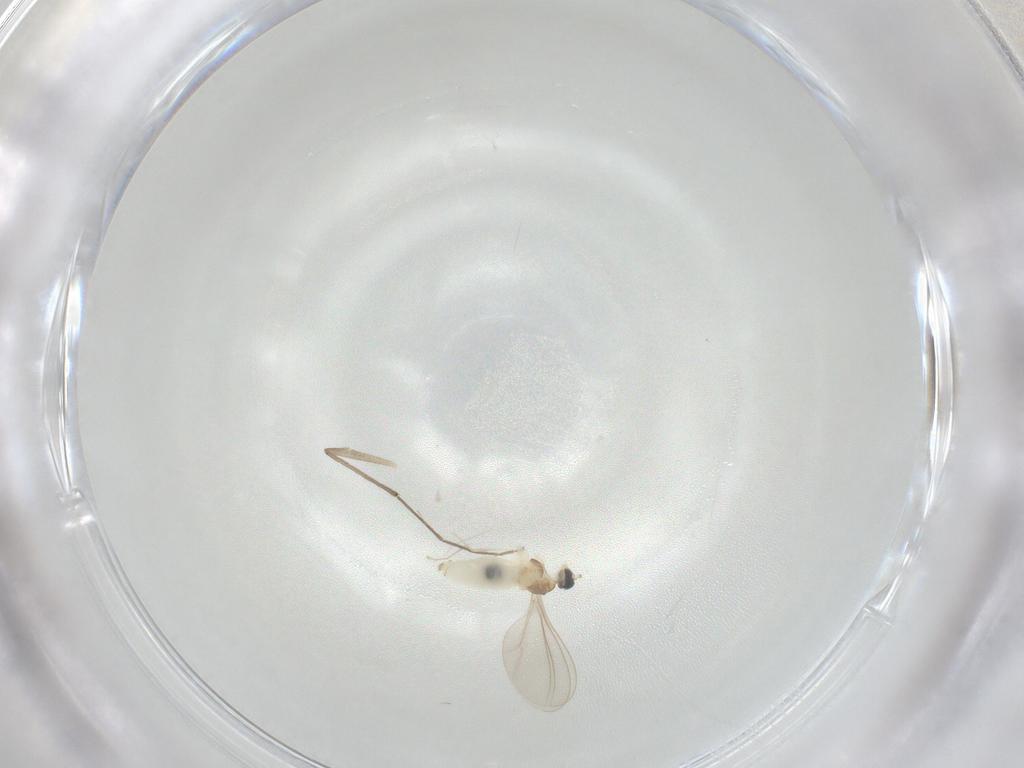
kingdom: Animalia
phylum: Arthropoda
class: Insecta
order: Diptera
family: Cecidomyiidae
